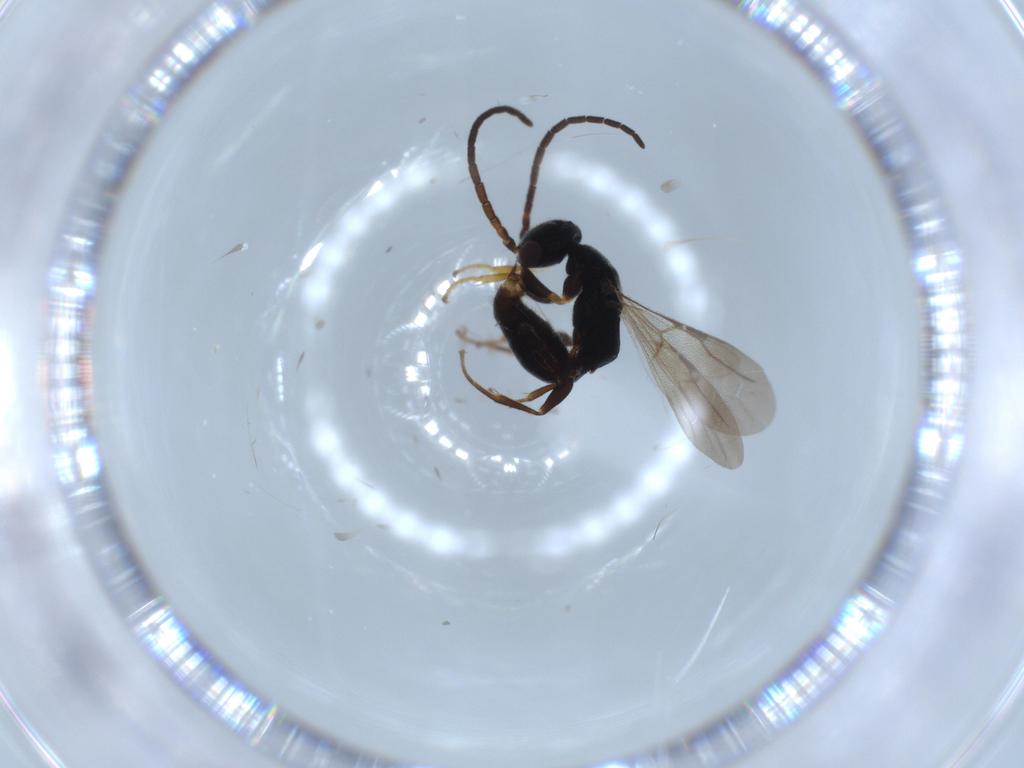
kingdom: Animalia
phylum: Arthropoda
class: Insecta
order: Hymenoptera
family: Bethylidae
